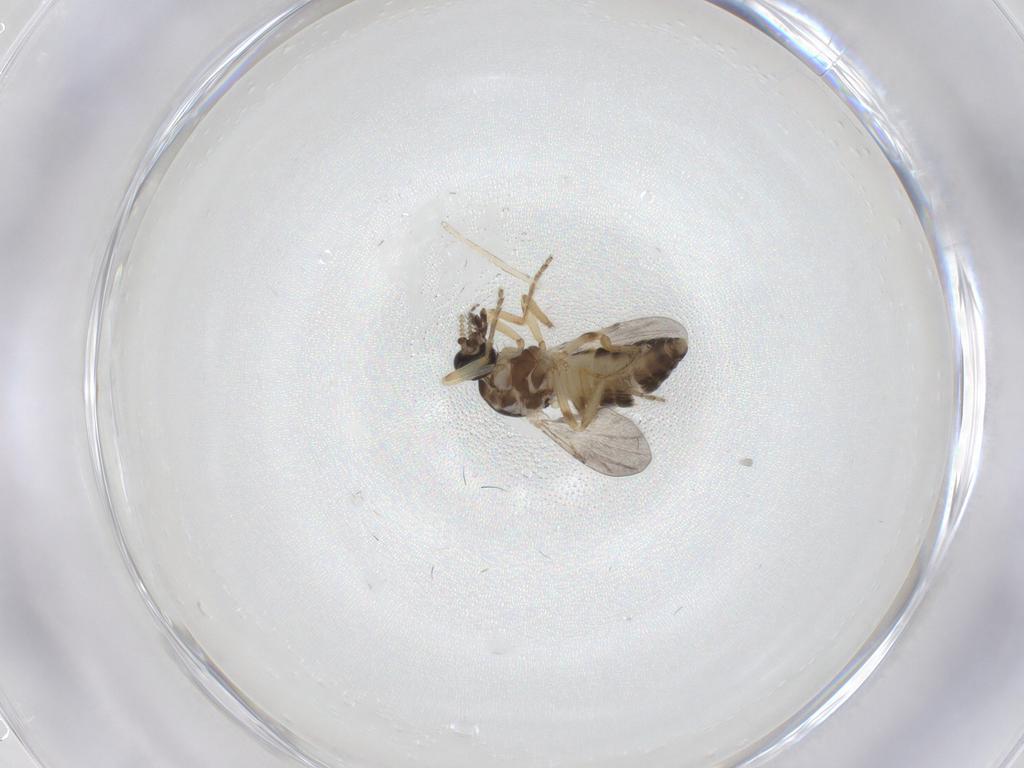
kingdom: Animalia
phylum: Arthropoda
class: Insecta
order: Diptera
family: Ceratopogonidae
